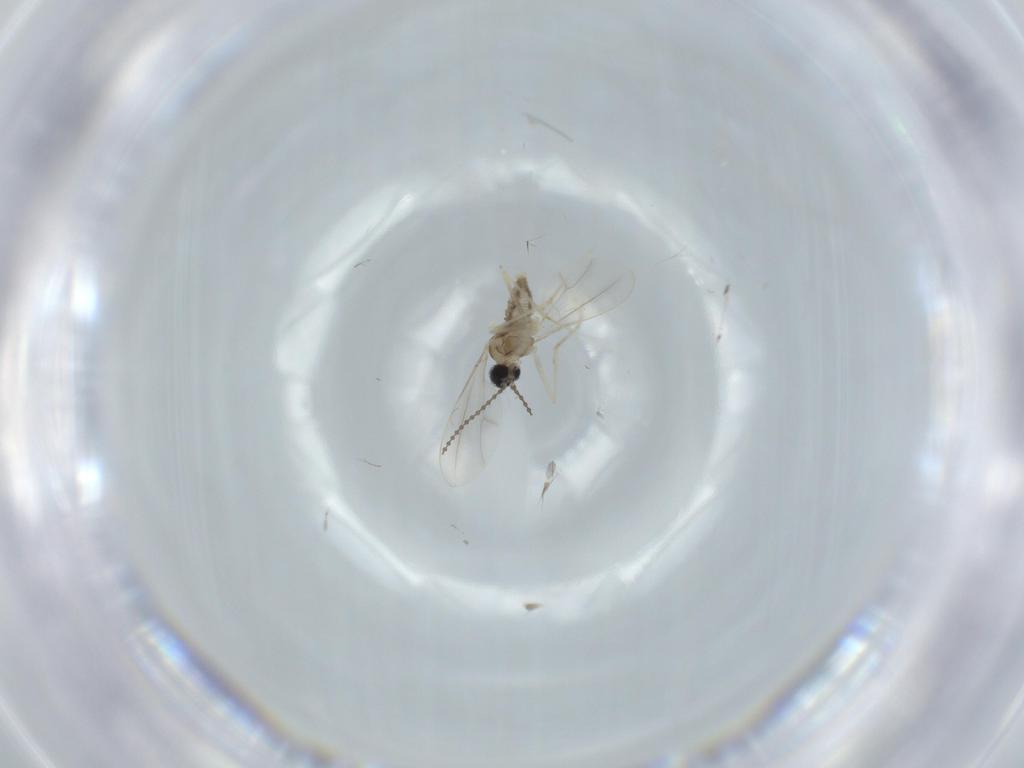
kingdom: Animalia
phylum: Arthropoda
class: Insecta
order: Diptera
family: Cecidomyiidae
